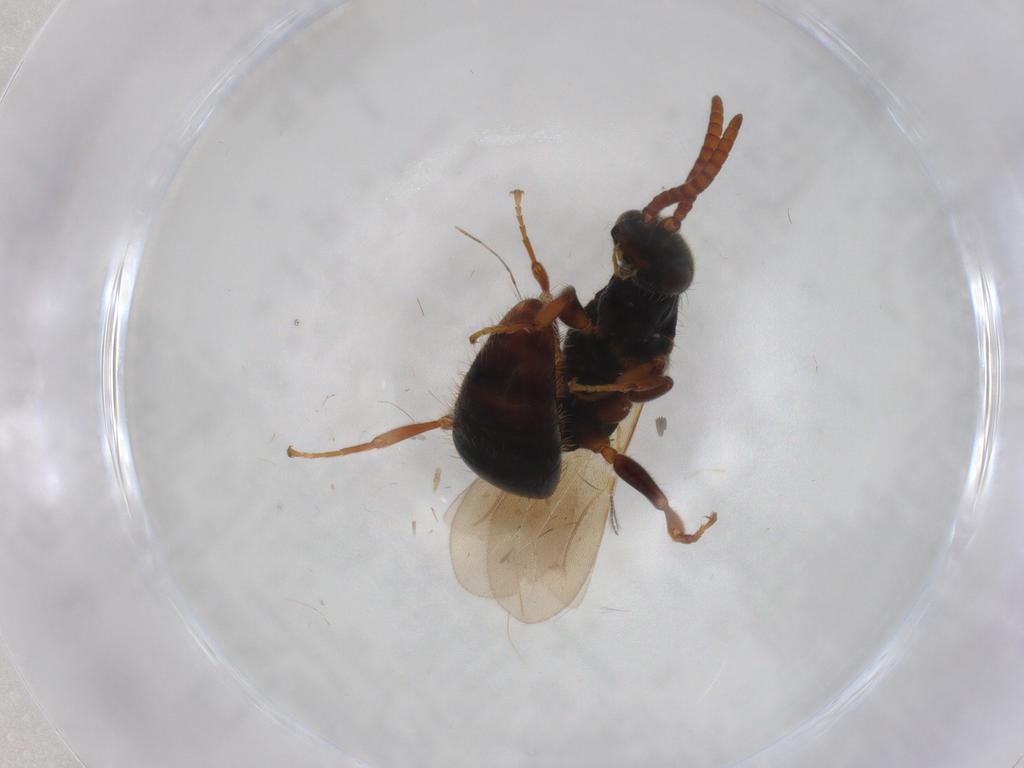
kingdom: Animalia
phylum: Arthropoda
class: Insecta
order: Hymenoptera
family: Bethylidae
